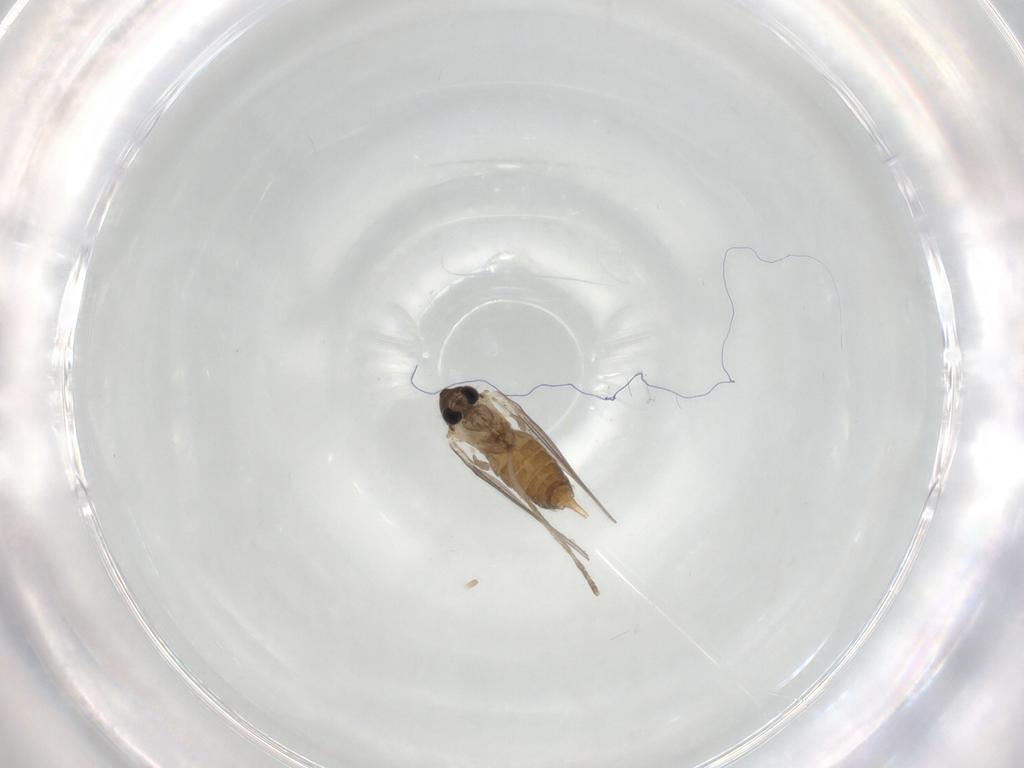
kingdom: Animalia
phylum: Arthropoda
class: Insecta
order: Diptera
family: Psychodidae
